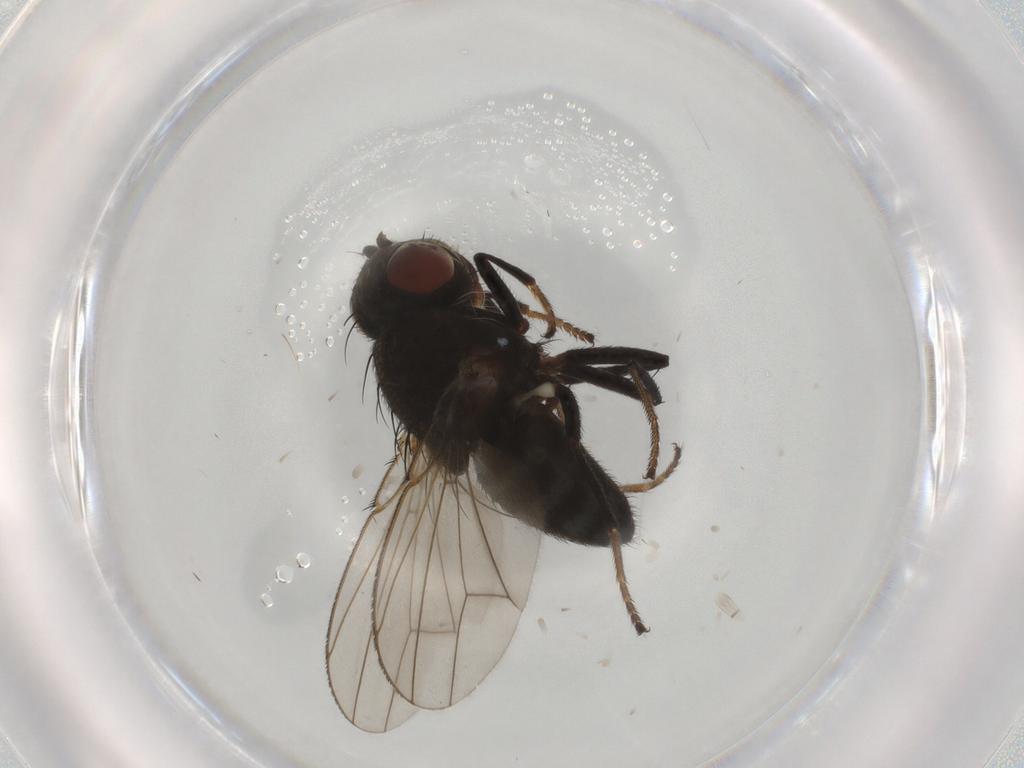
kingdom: Animalia
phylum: Arthropoda
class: Insecta
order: Diptera
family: Ephydridae
